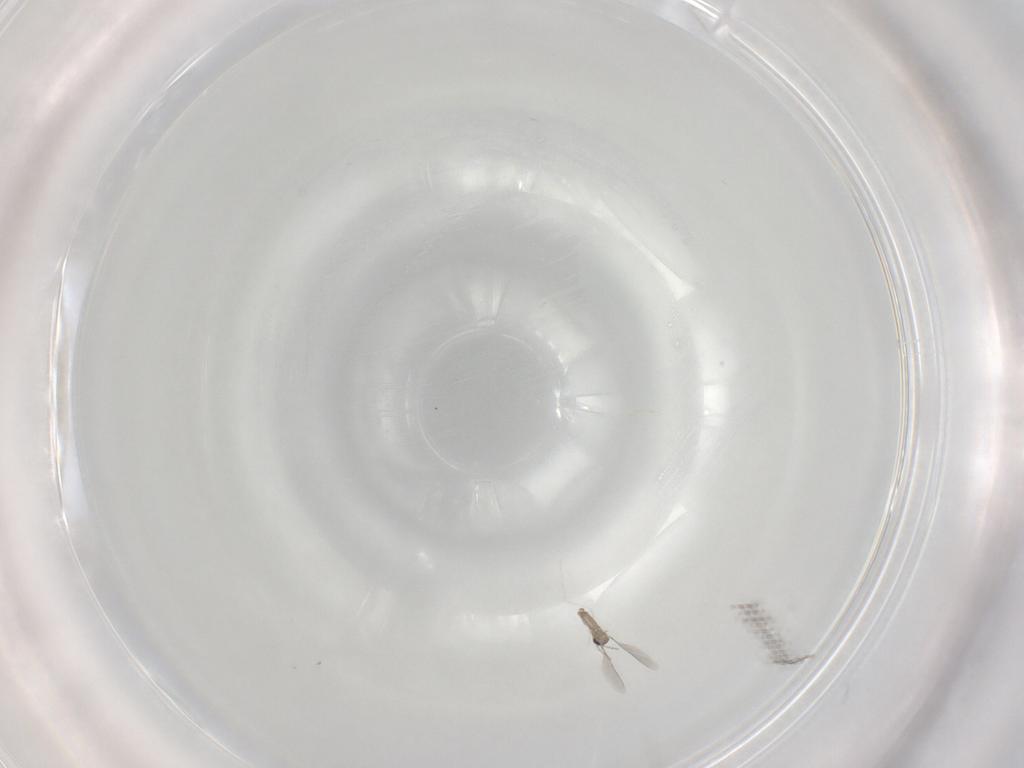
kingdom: Animalia
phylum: Arthropoda
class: Insecta
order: Diptera
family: Cecidomyiidae
